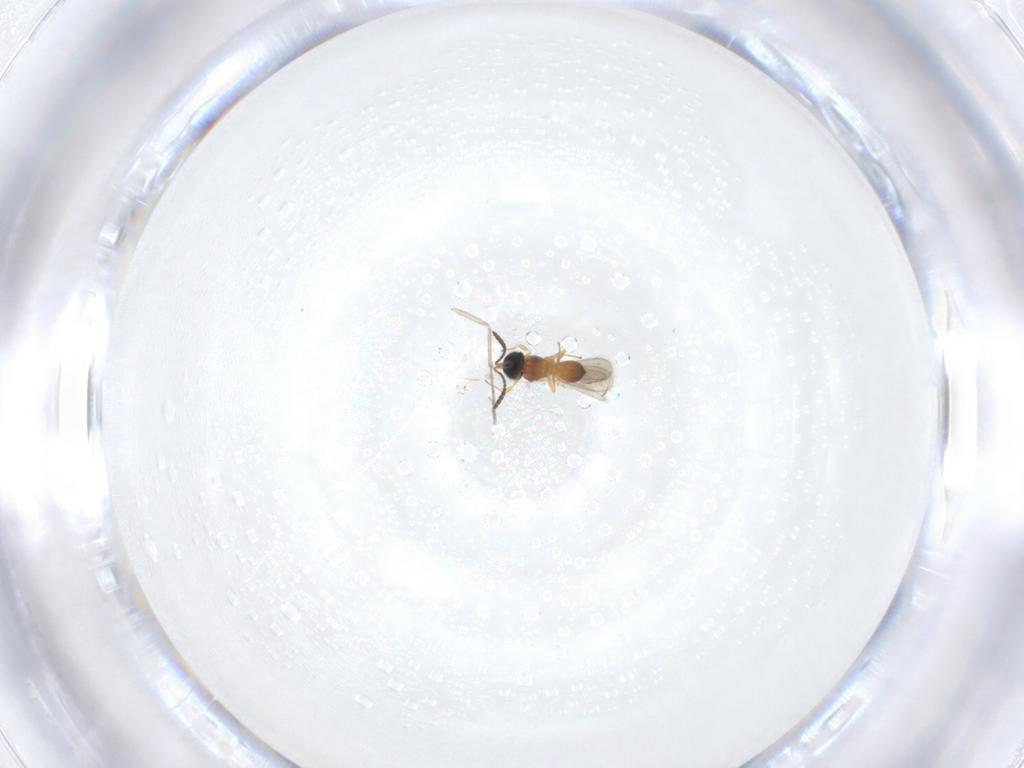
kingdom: Animalia
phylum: Arthropoda
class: Insecta
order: Hymenoptera
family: Scelionidae
